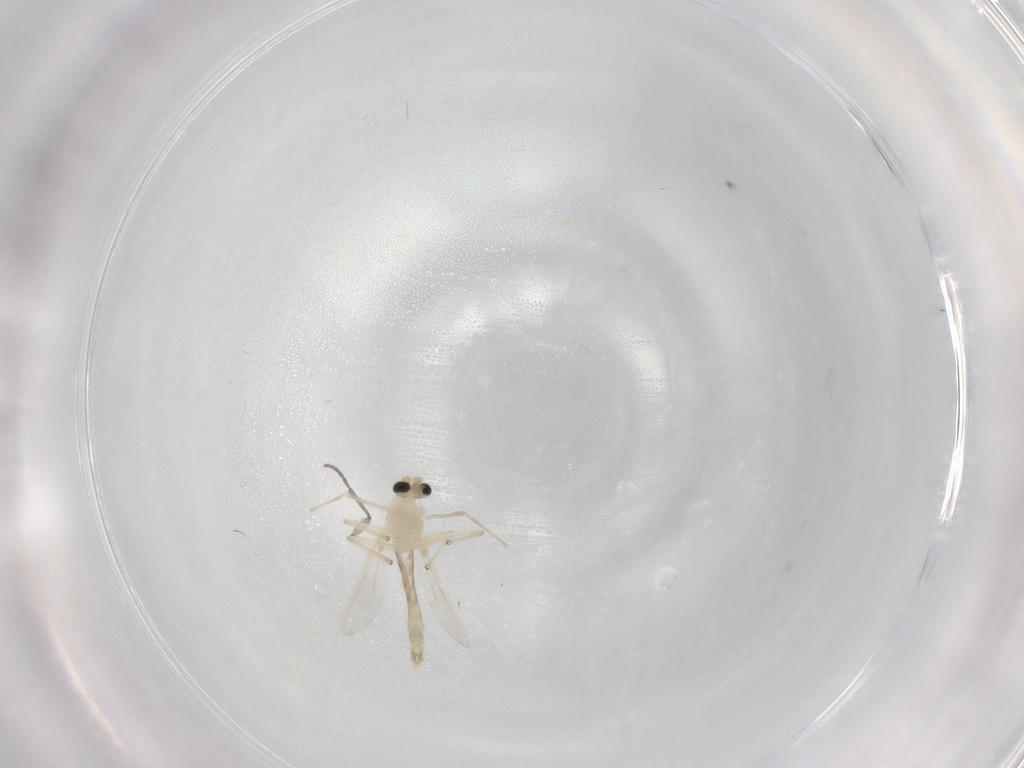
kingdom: Animalia
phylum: Arthropoda
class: Insecta
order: Diptera
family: Chironomidae
